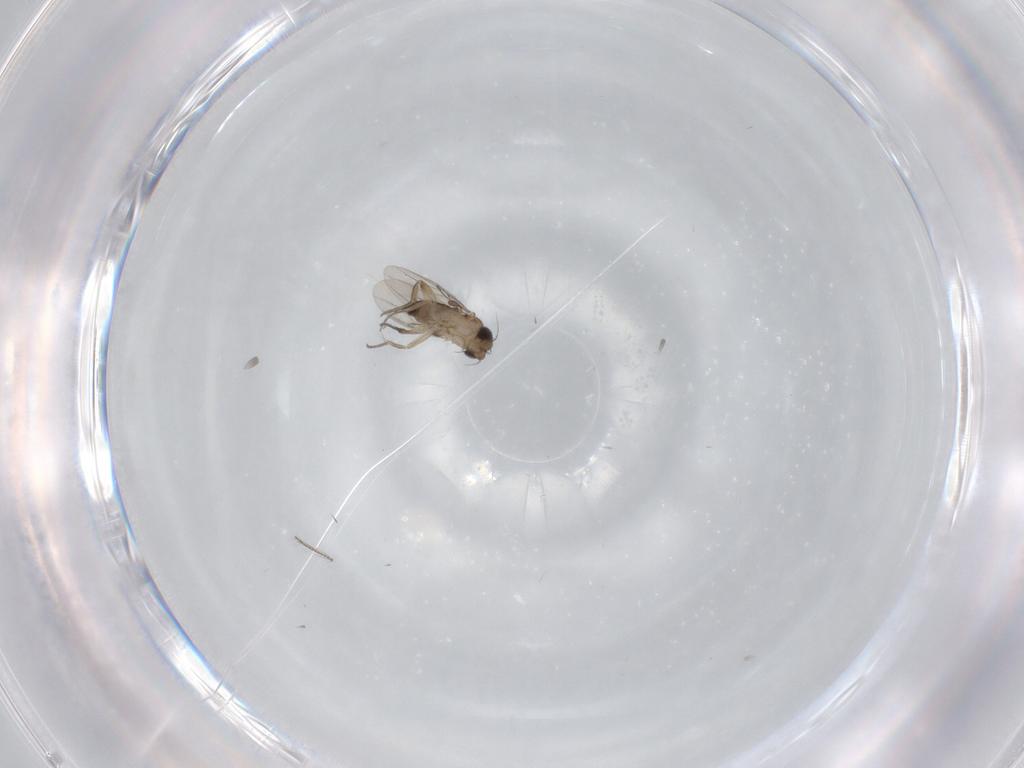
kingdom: Animalia
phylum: Arthropoda
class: Insecta
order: Diptera
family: Phoridae
